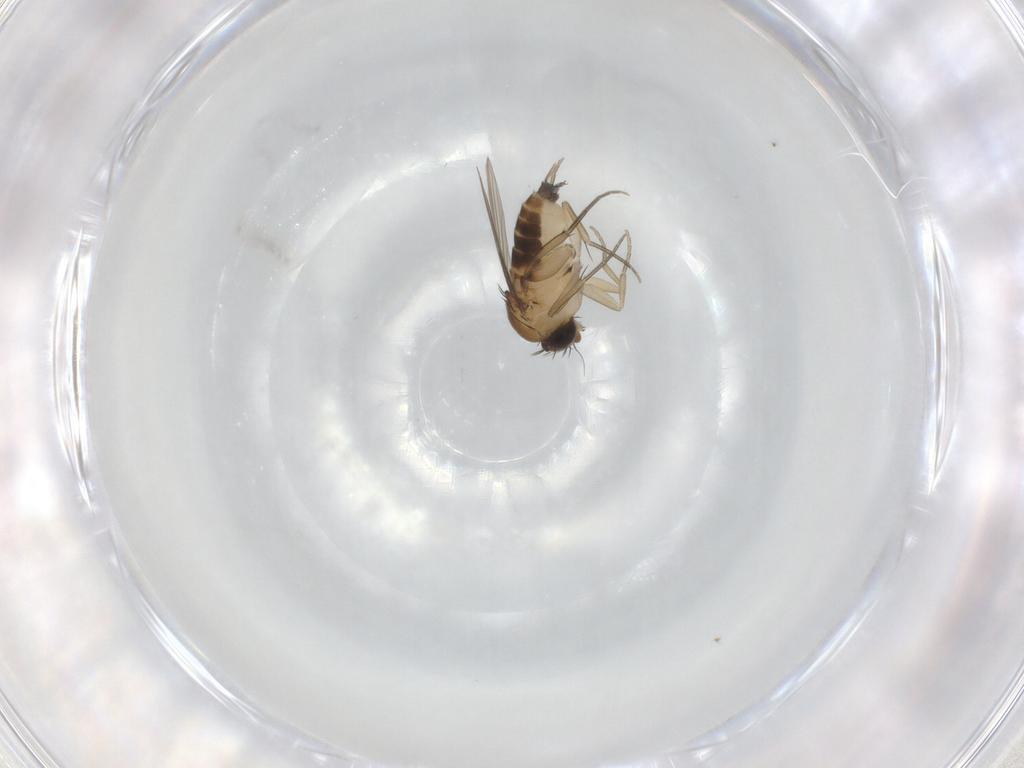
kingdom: Animalia
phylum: Arthropoda
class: Insecta
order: Diptera
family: Phoridae
